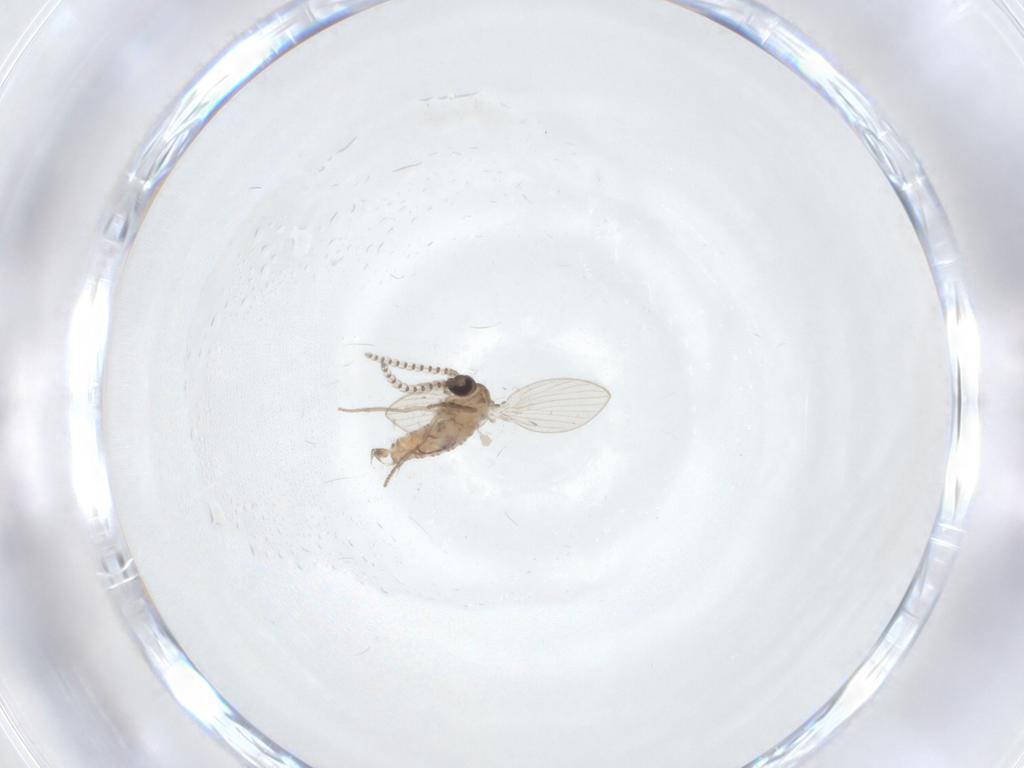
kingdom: Animalia
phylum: Arthropoda
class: Insecta
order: Diptera
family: Psychodidae
